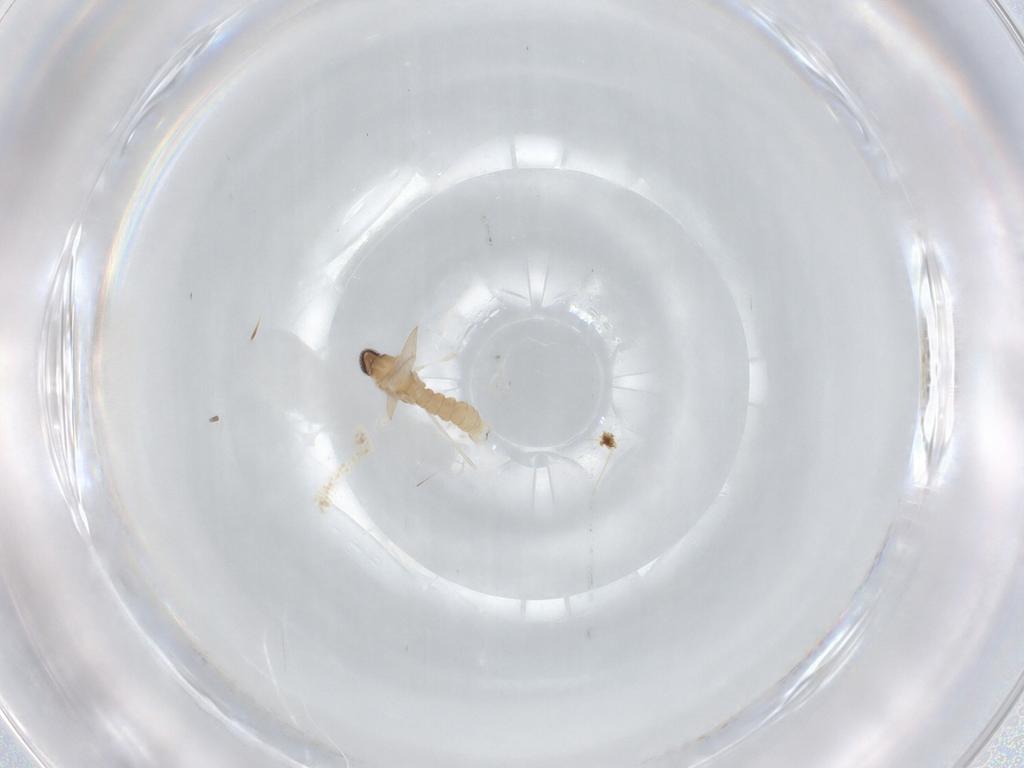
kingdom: Animalia
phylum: Arthropoda
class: Insecta
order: Diptera
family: Cecidomyiidae
